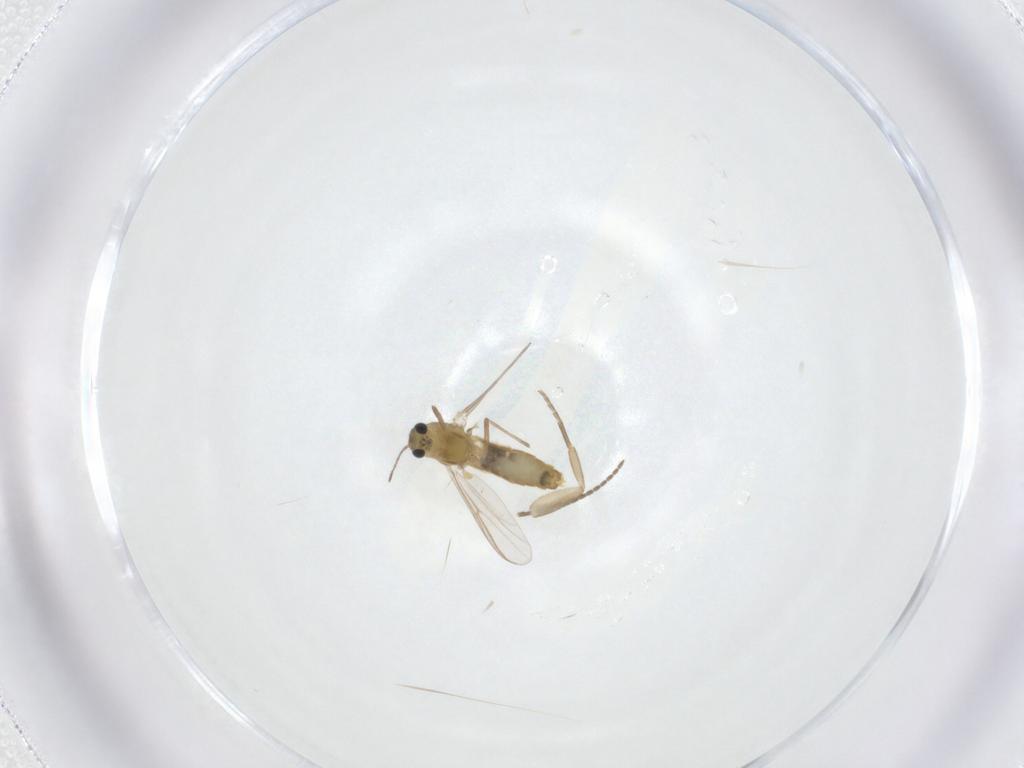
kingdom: Animalia
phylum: Arthropoda
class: Insecta
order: Diptera
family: Sciaridae
